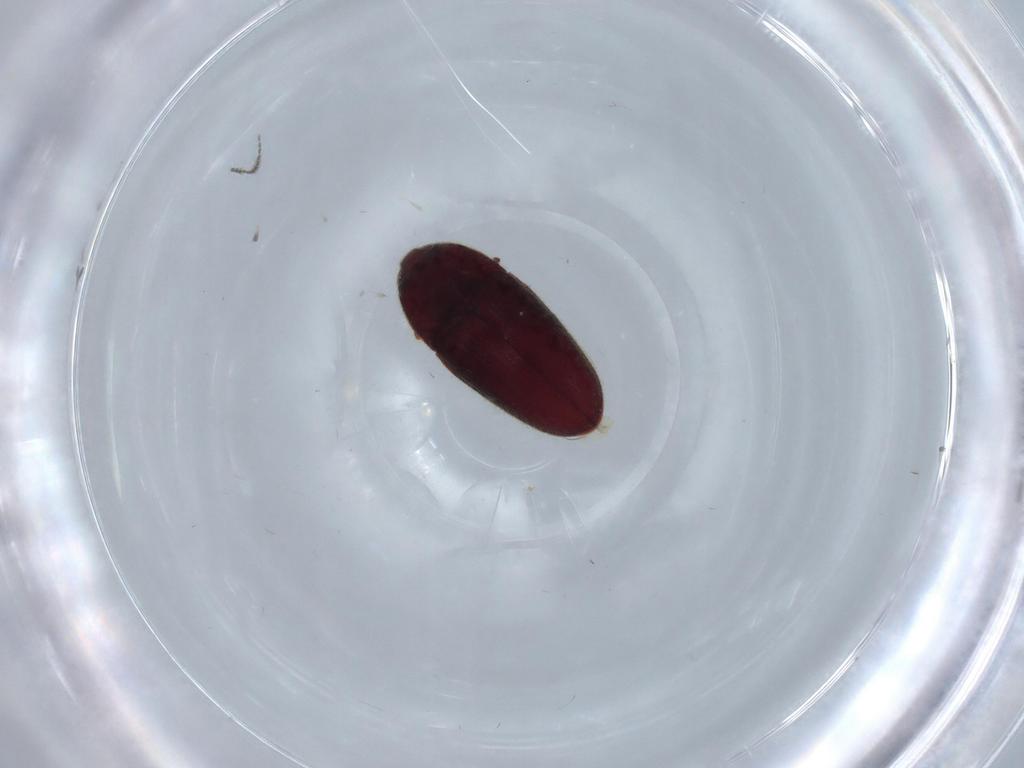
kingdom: Animalia
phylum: Arthropoda
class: Insecta
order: Coleoptera
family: Throscidae
